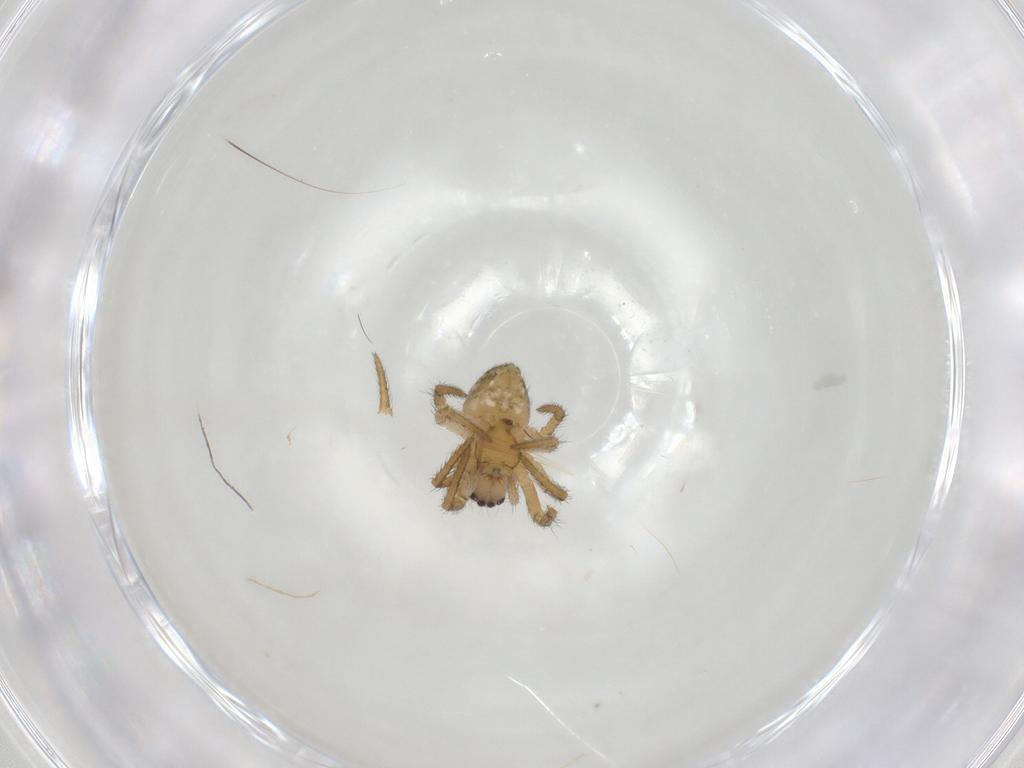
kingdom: Animalia
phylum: Arthropoda
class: Arachnida
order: Araneae
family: Araneidae
